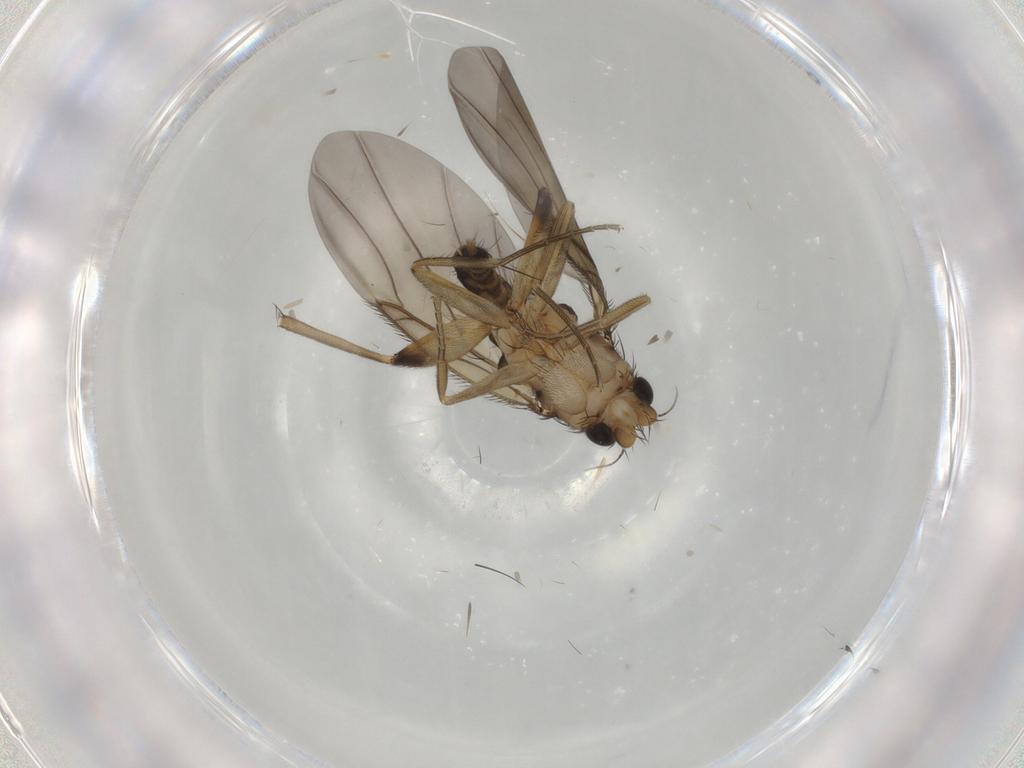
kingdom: Animalia
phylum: Arthropoda
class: Insecta
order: Diptera
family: Phoridae
